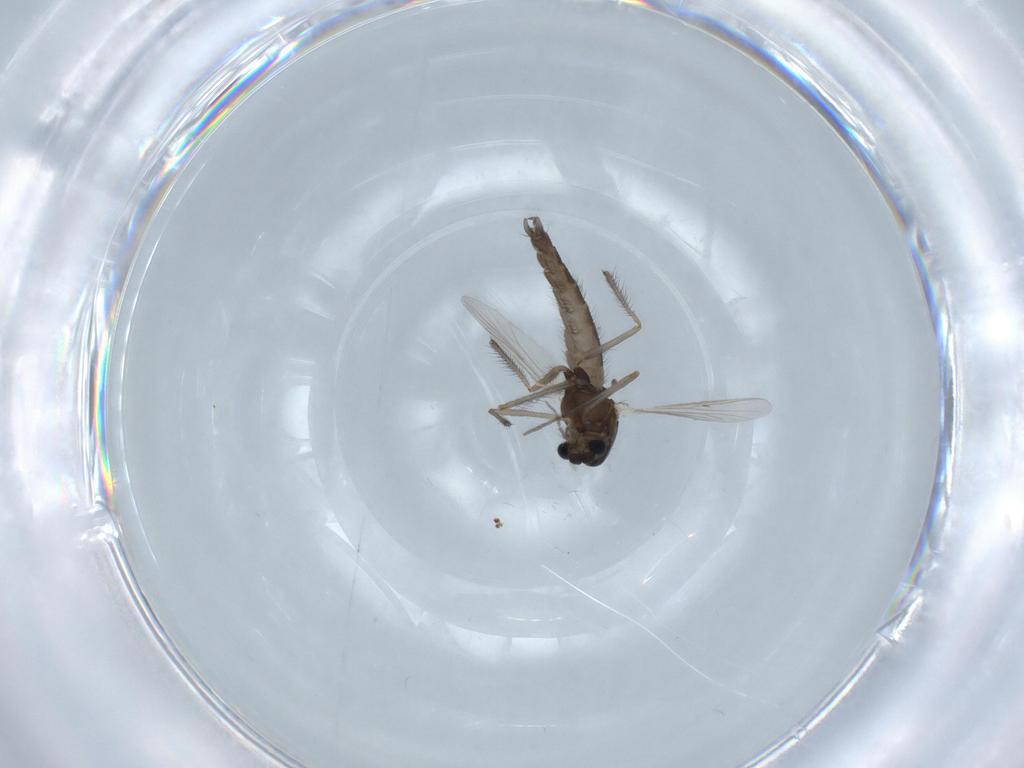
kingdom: Animalia
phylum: Arthropoda
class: Insecta
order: Diptera
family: Chironomidae
